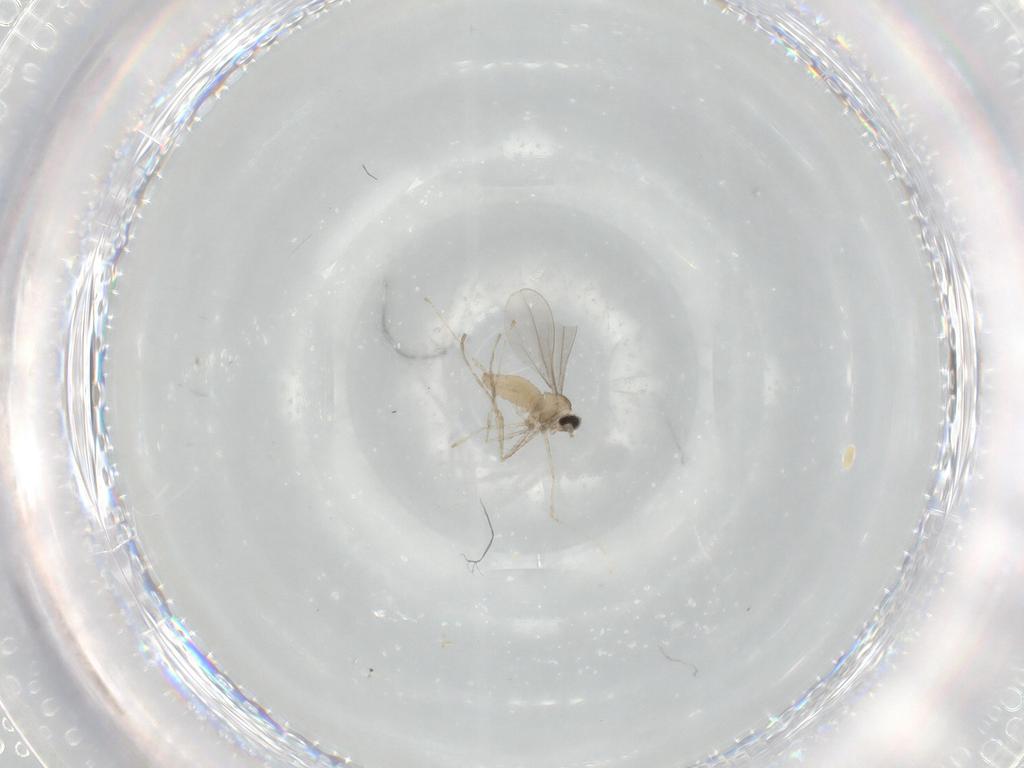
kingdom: Animalia
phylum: Arthropoda
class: Insecta
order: Diptera
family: Cecidomyiidae
